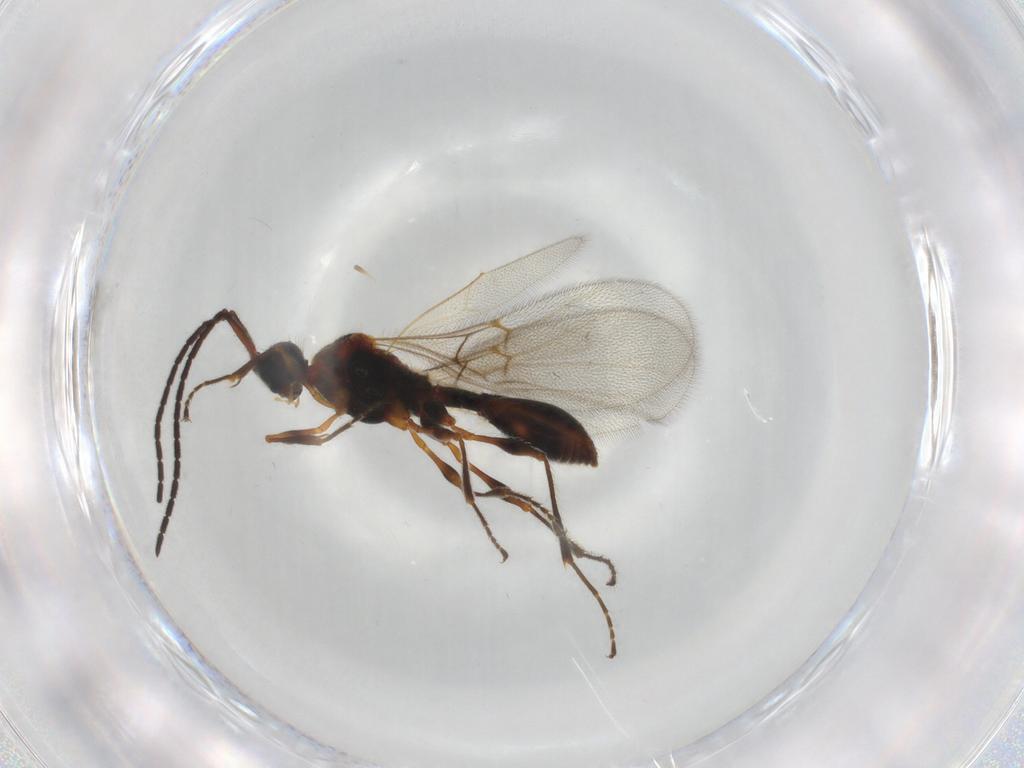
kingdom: Animalia
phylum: Arthropoda
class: Insecta
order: Hymenoptera
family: Diapriidae
